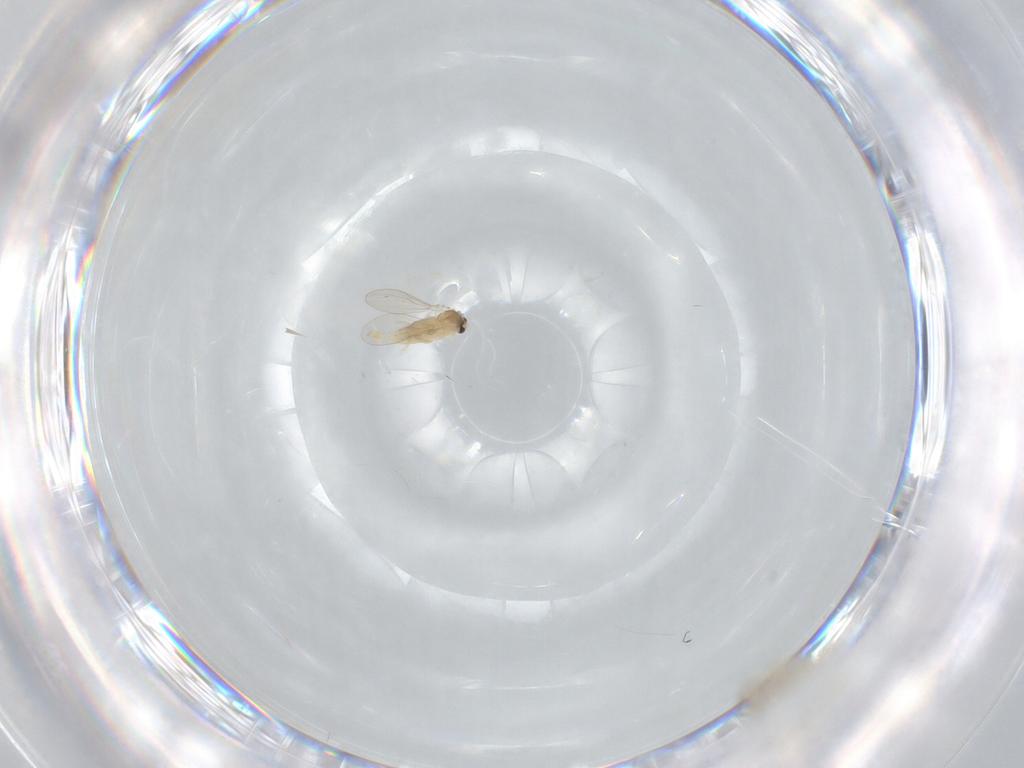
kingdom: Animalia
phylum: Arthropoda
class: Insecta
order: Diptera
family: Cecidomyiidae
